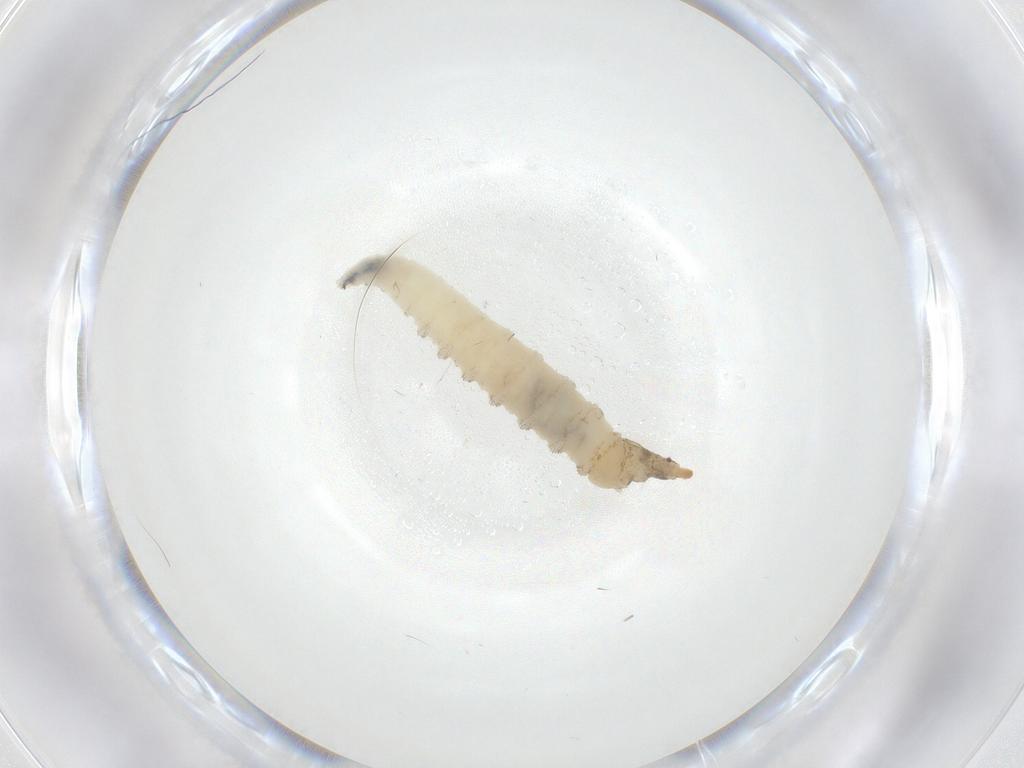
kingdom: Animalia
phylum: Arthropoda
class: Insecta
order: Diptera
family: Drosophilidae
